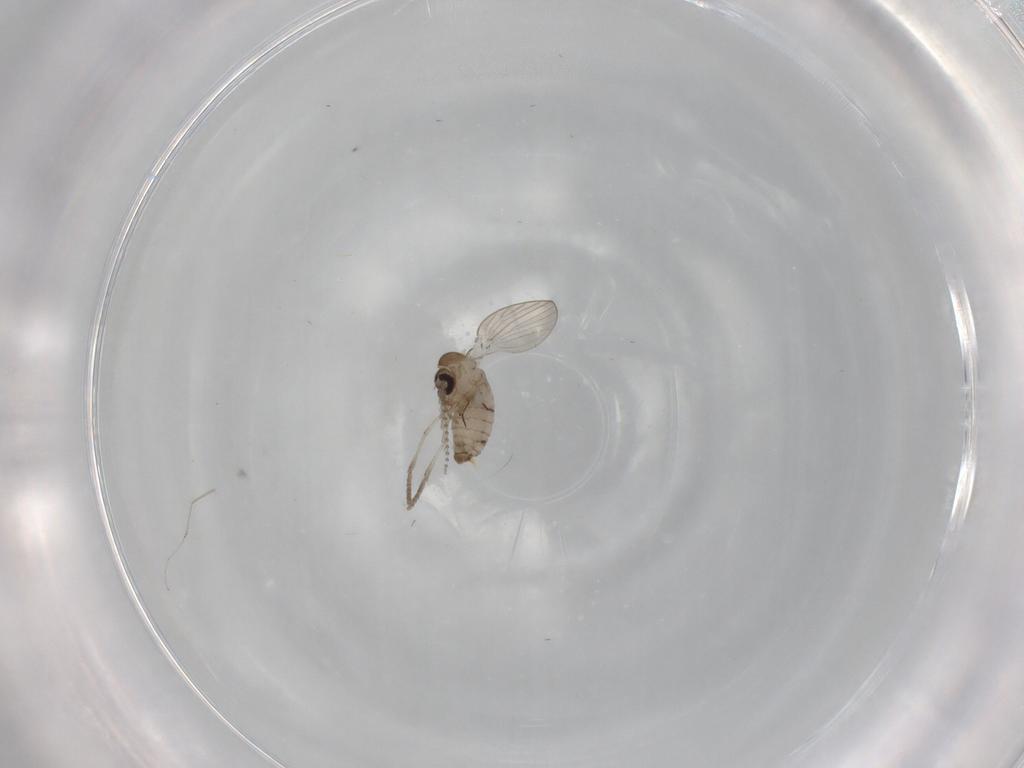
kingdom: Animalia
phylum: Arthropoda
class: Insecta
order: Diptera
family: Psychodidae
